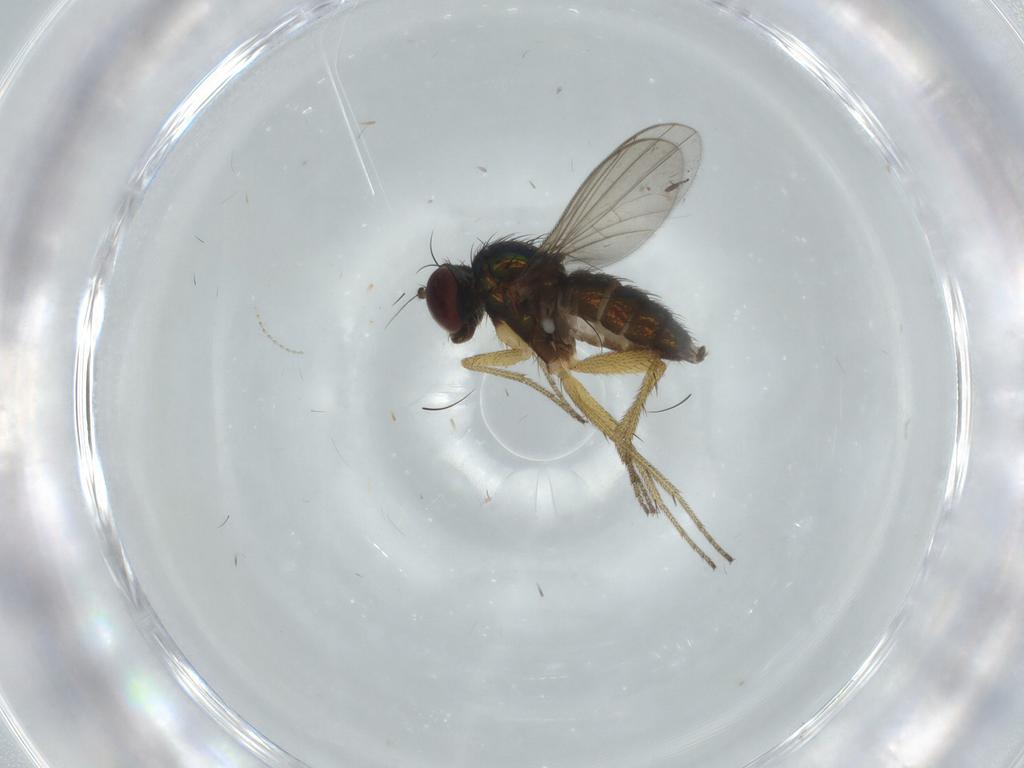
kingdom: Animalia
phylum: Arthropoda
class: Insecta
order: Diptera
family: Dolichopodidae
